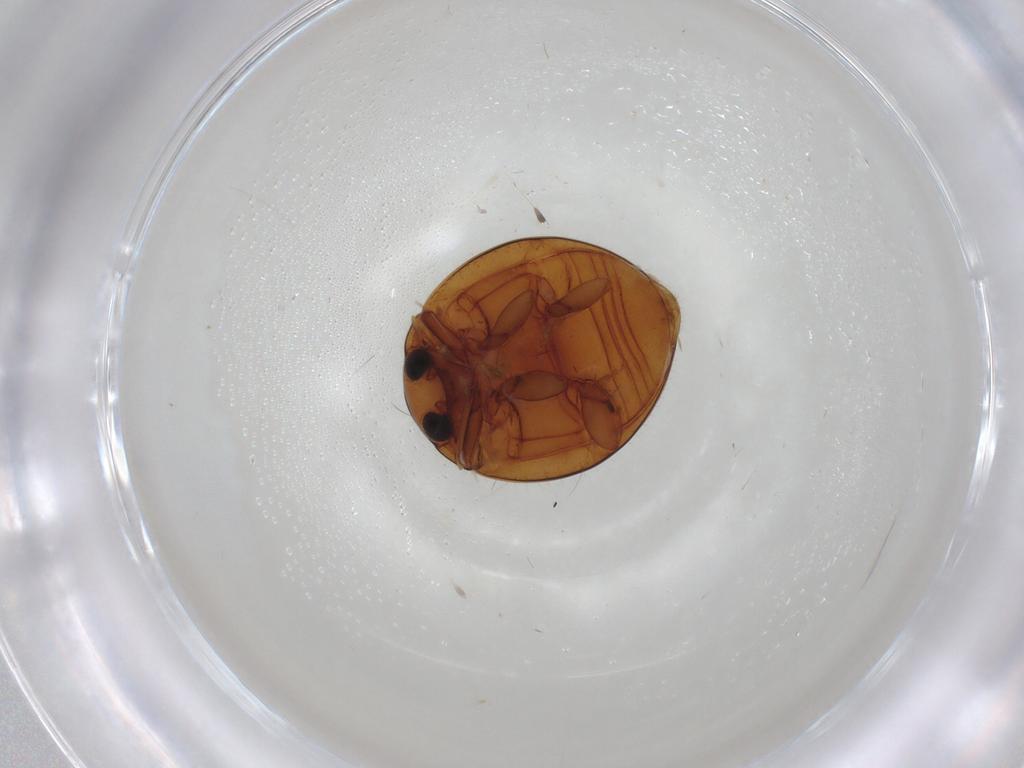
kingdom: Animalia
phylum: Arthropoda
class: Insecta
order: Coleoptera
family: Coccinellidae
